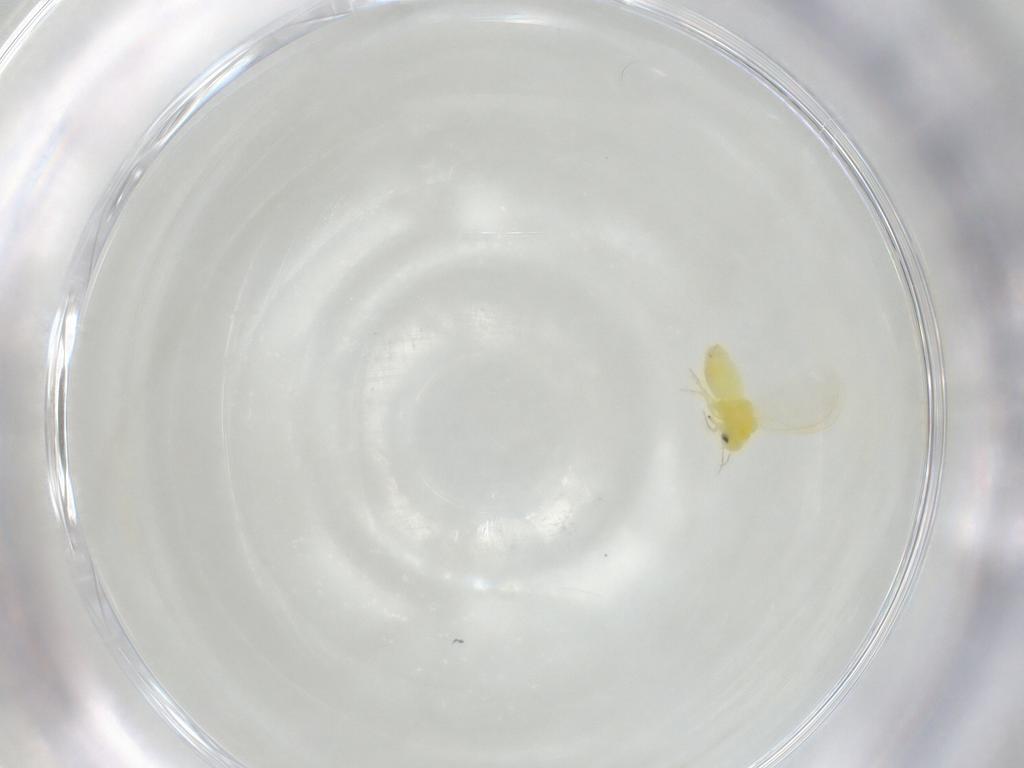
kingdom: Animalia
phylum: Arthropoda
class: Insecta
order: Hemiptera
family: Aleyrodidae
